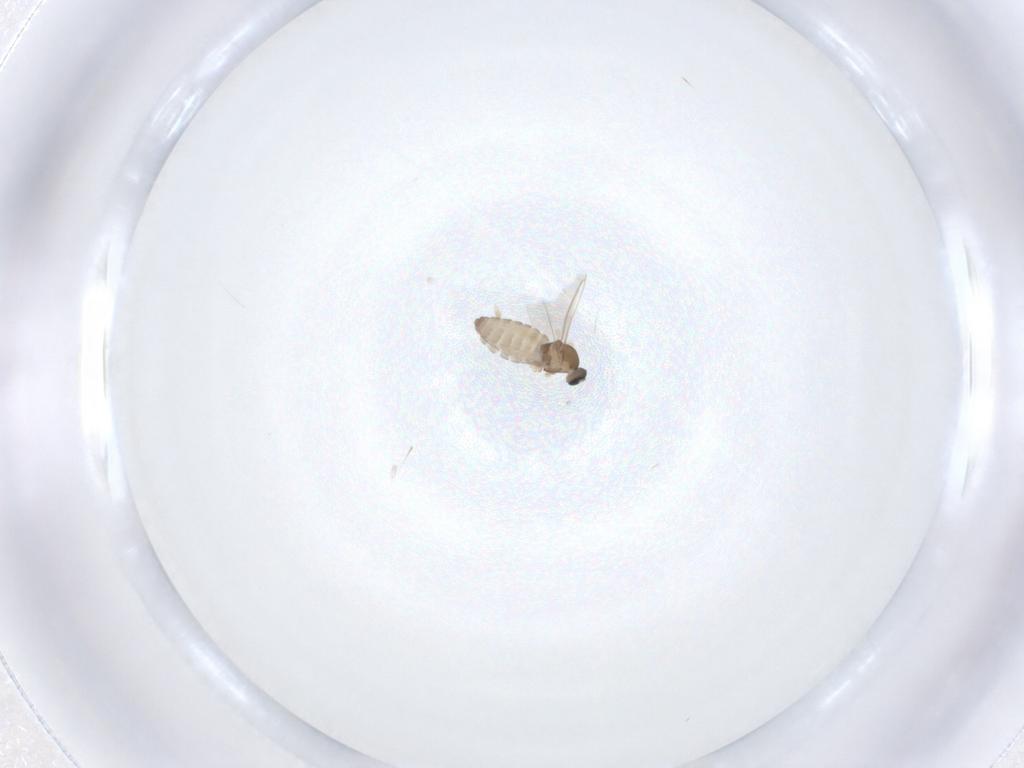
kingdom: Animalia
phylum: Arthropoda
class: Insecta
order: Diptera
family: Cecidomyiidae
